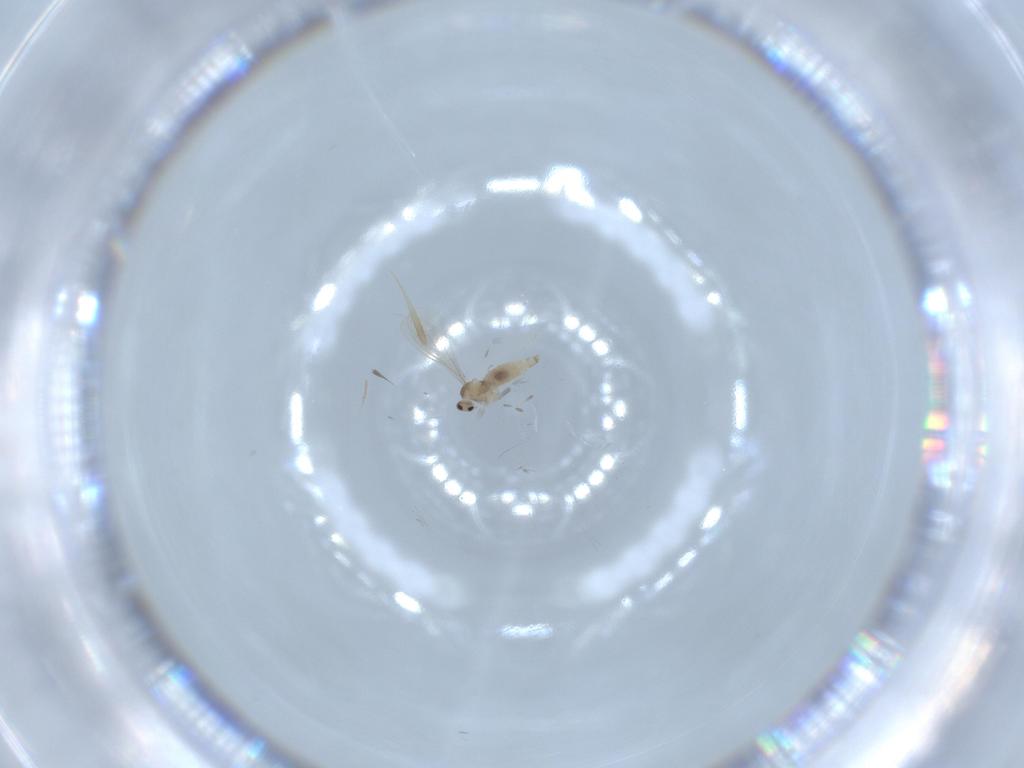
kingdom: Animalia
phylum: Arthropoda
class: Insecta
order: Diptera
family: Cecidomyiidae
